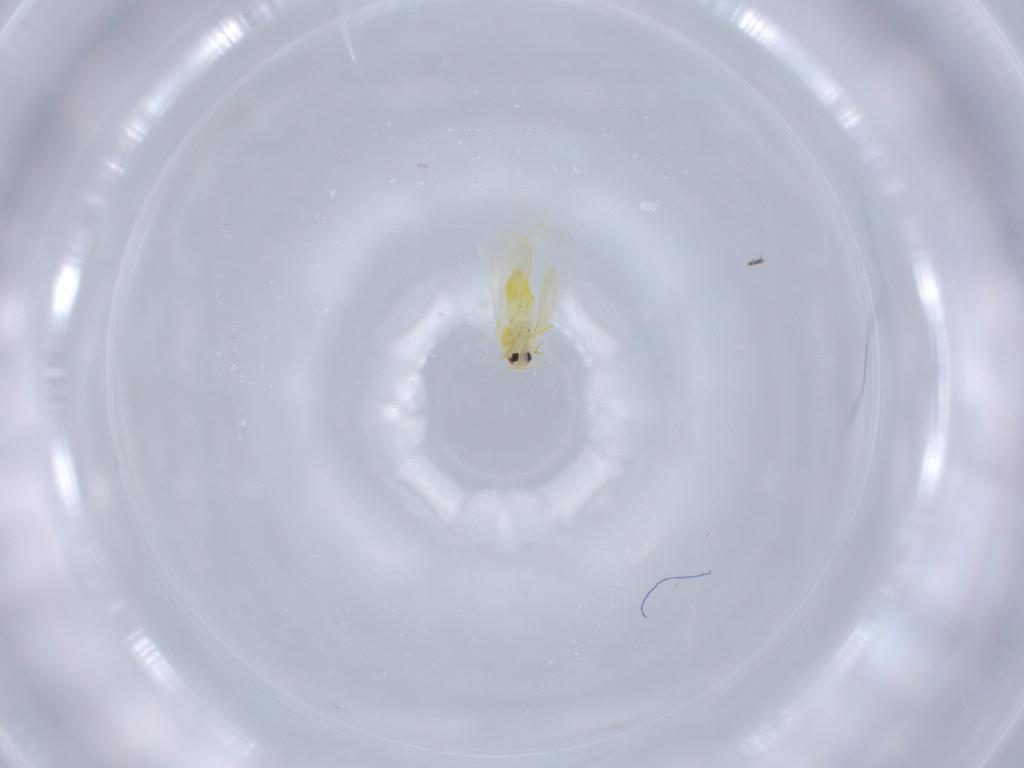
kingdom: Animalia
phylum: Arthropoda
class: Insecta
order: Hemiptera
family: Aleyrodidae
